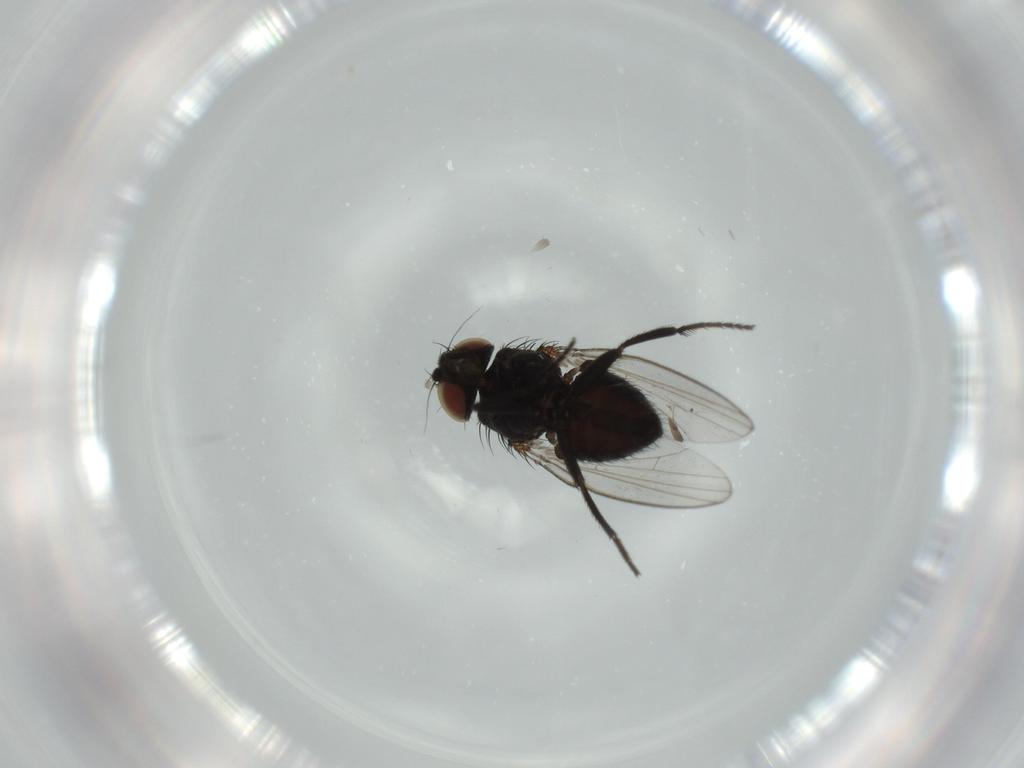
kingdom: Animalia
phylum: Arthropoda
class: Insecta
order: Diptera
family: Milichiidae
